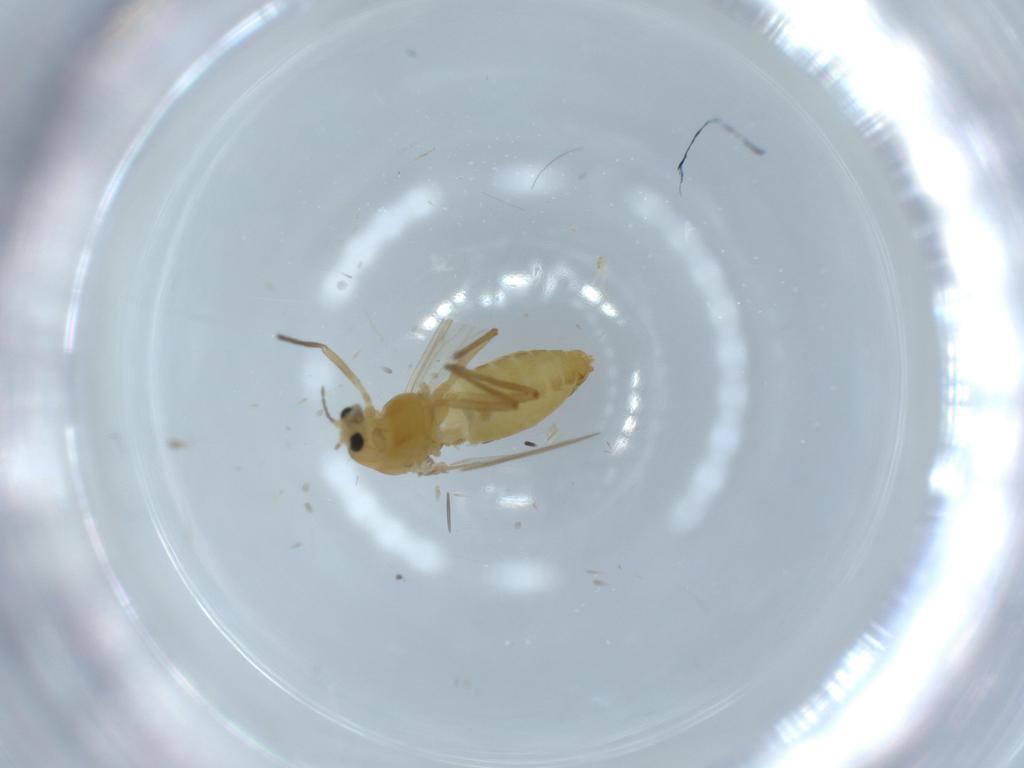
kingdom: Animalia
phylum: Arthropoda
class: Insecta
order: Diptera
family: Chironomidae
